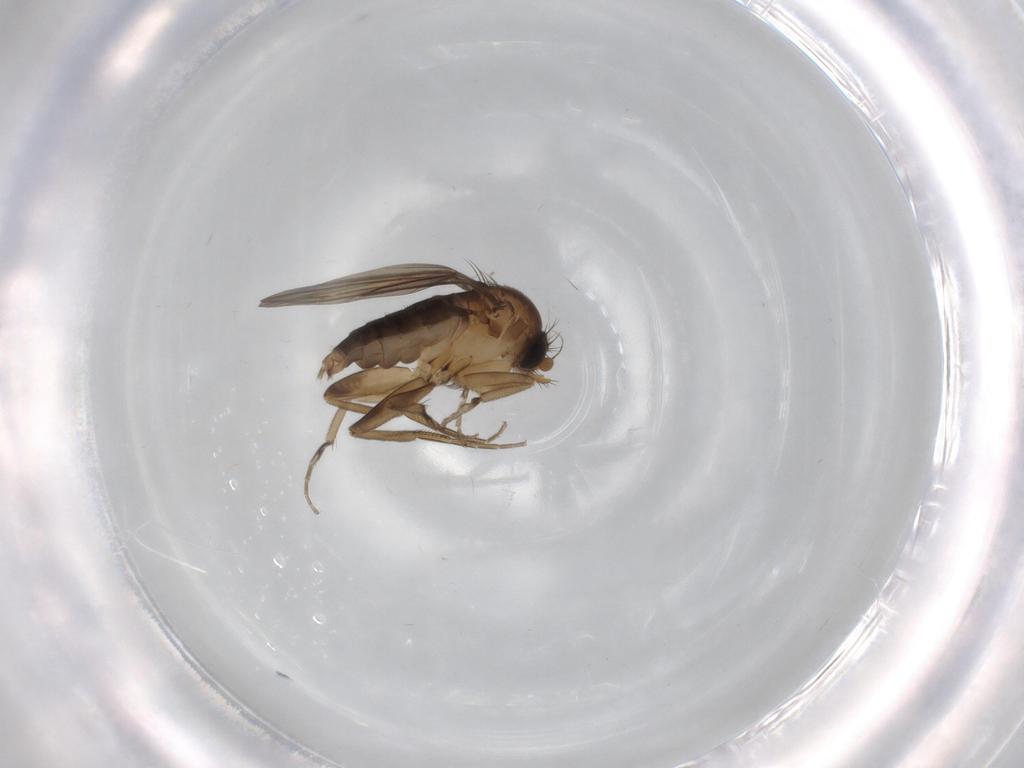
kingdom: Animalia
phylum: Arthropoda
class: Insecta
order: Diptera
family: Phoridae
